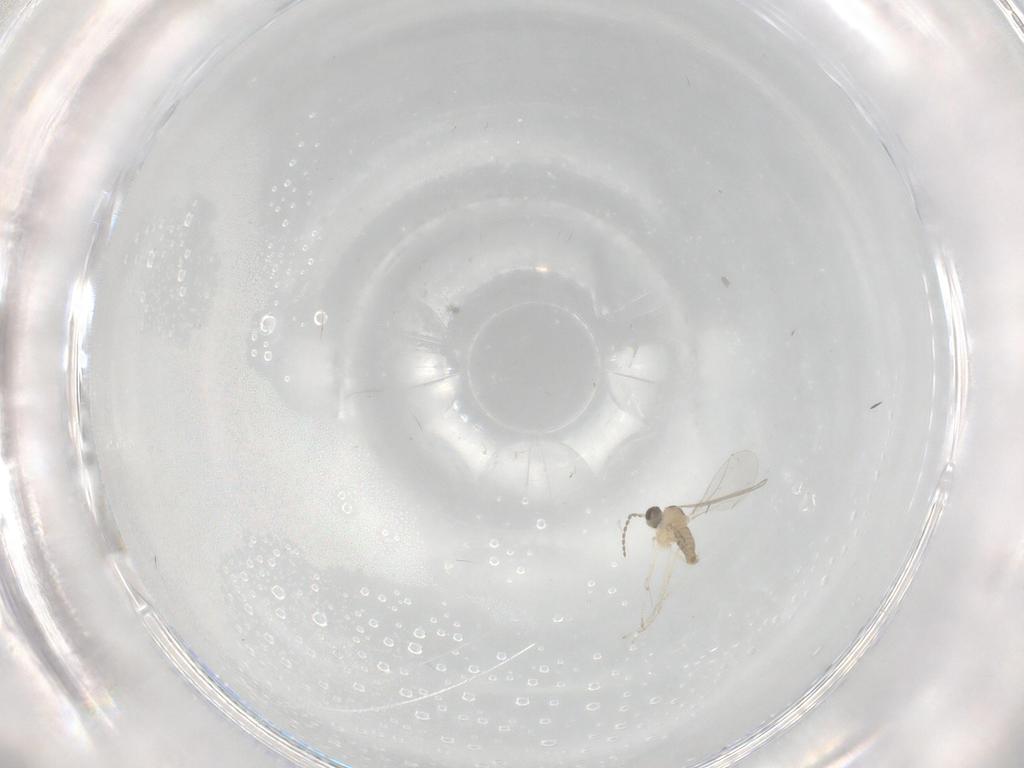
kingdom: Animalia
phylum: Arthropoda
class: Insecta
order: Diptera
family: Cecidomyiidae
